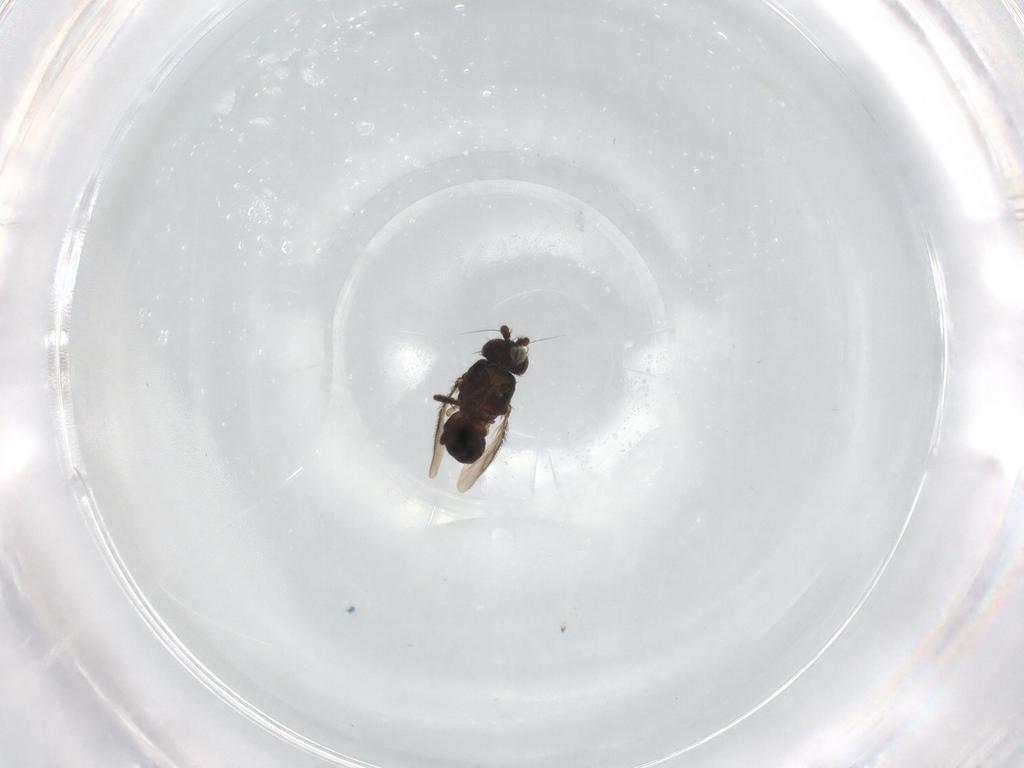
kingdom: Animalia
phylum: Arthropoda
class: Insecta
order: Diptera
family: Sphaeroceridae
